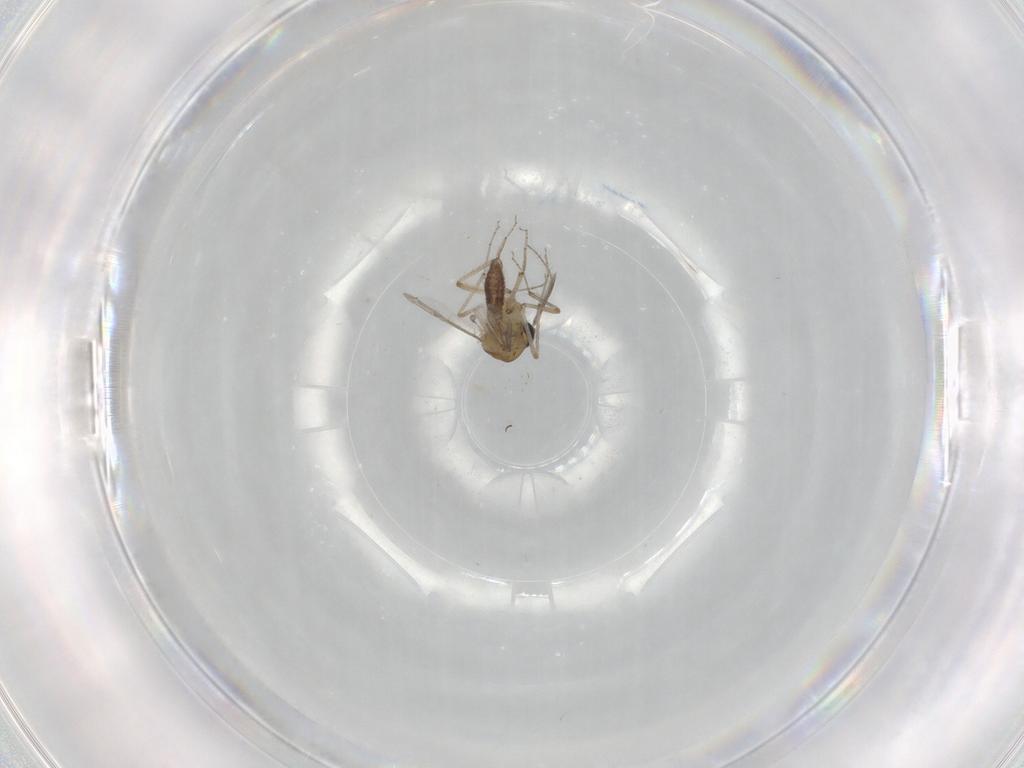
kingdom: Animalia
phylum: Arthropoda
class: Insecta
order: Diptera
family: Ceratopogonidae
